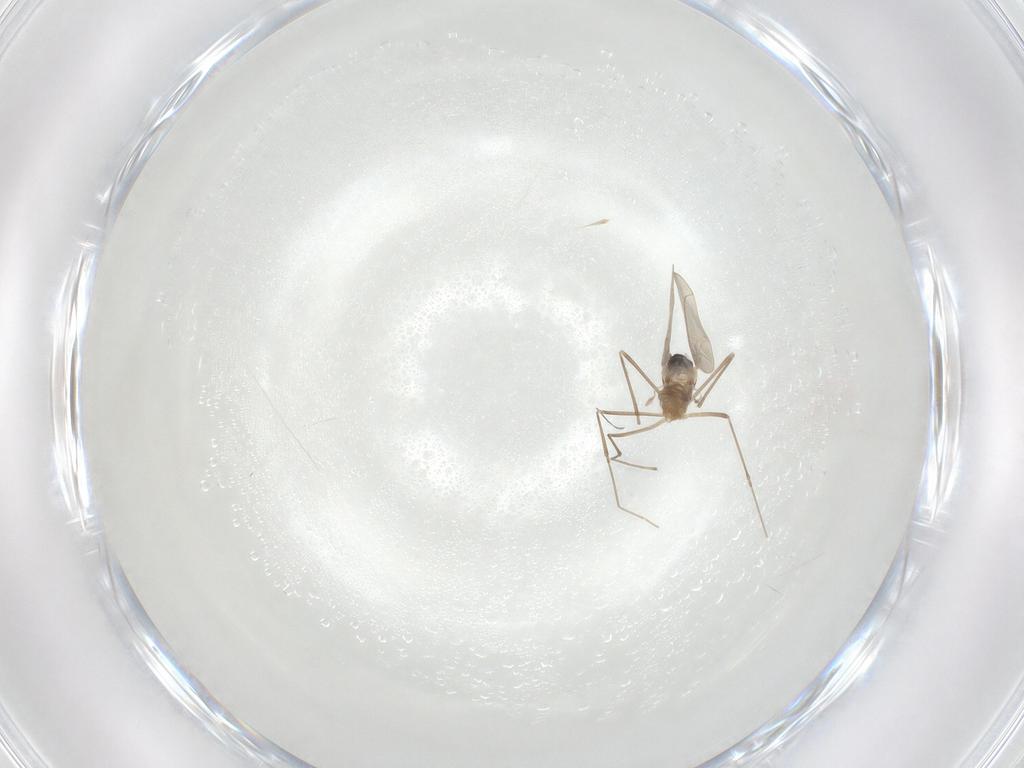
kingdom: Animalia
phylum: Arthropoda
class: Insecta
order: Diptera
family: Cecidomyiidae
